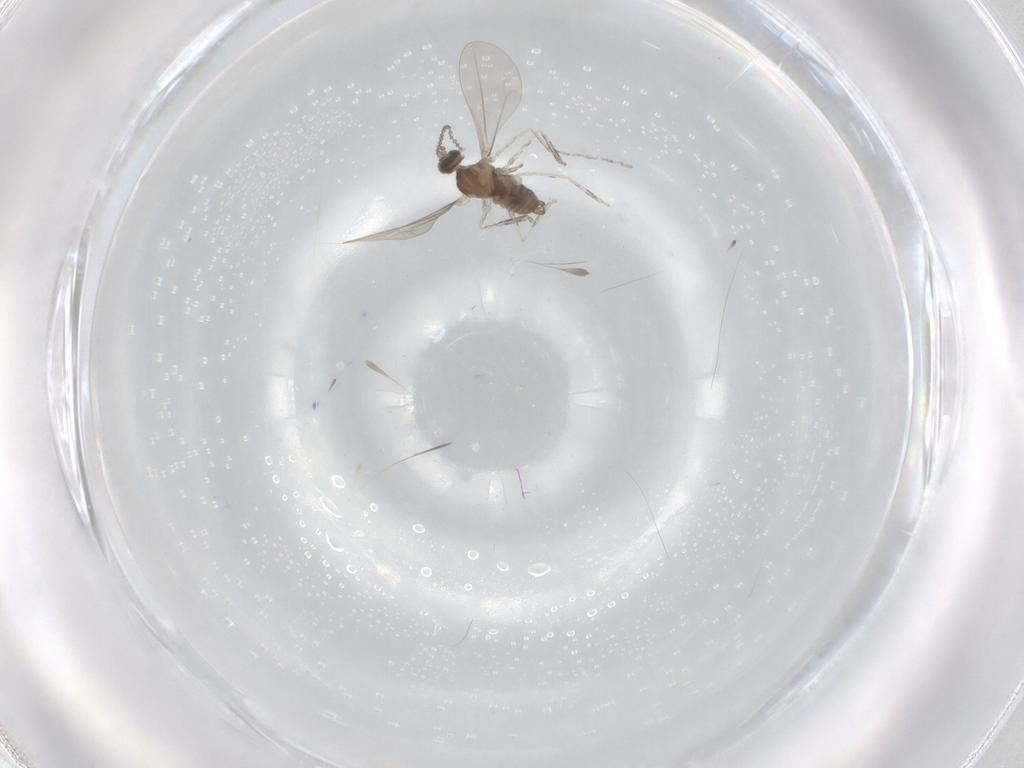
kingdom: Animalia
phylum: Arthropoda
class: Insecta
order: Diptera
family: Cecidomyiidae
